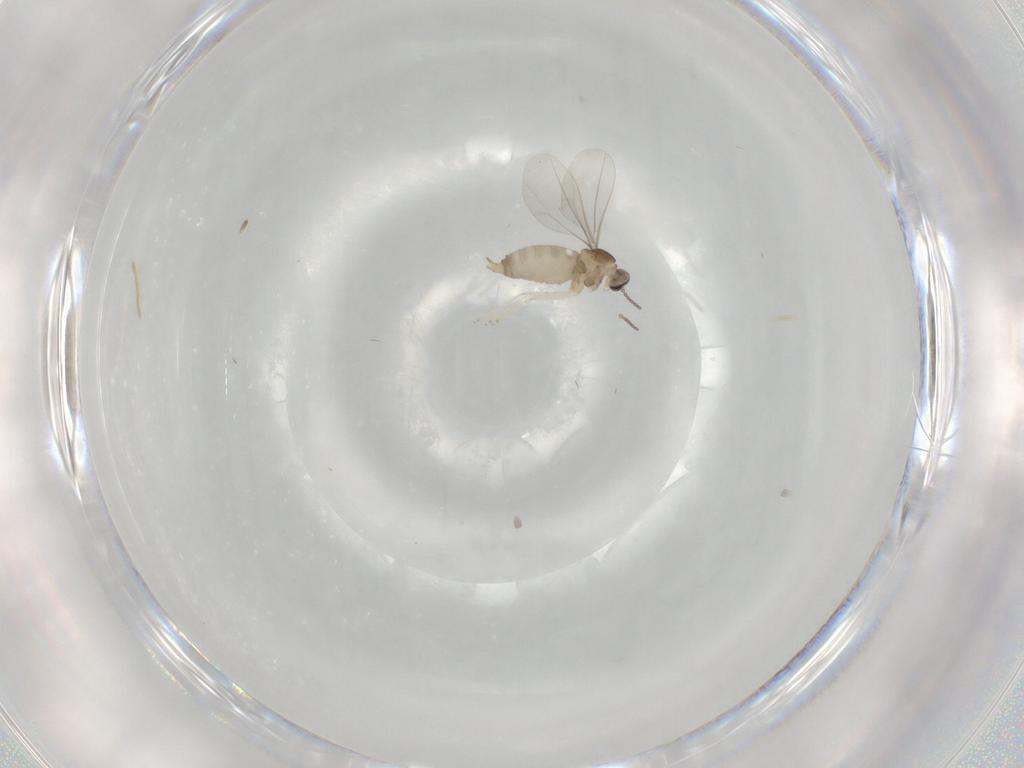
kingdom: Animalia
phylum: Arthropoda
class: Insecta
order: Diptera
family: Cecidomyiidae
